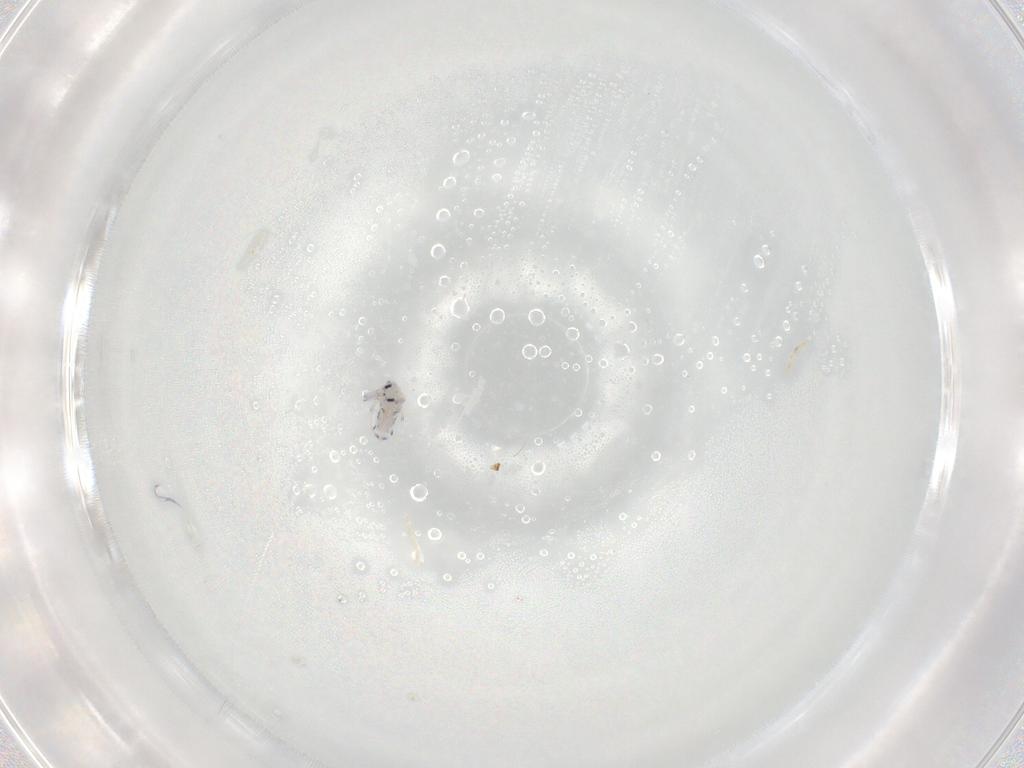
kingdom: Animalia
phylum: Arthropoda
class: Collembola
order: Entomobryomorpha
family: Entomobryidae
